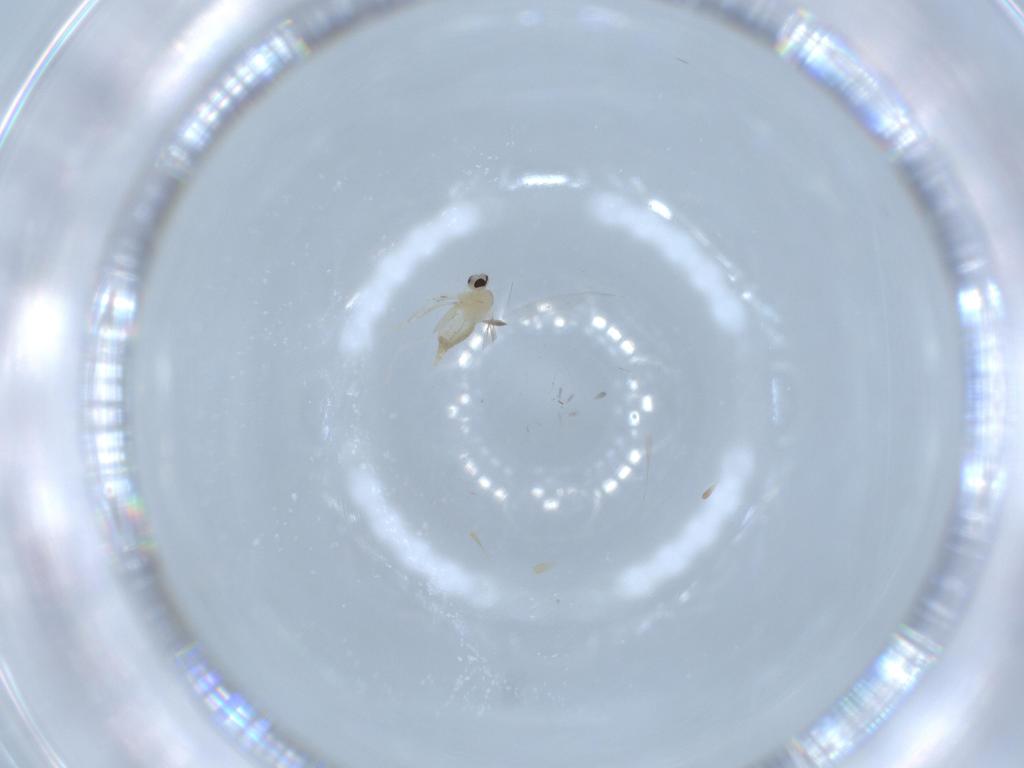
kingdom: Animalia
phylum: Arthropoda
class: Insecta
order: Diptera
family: Cecidomyiidae
